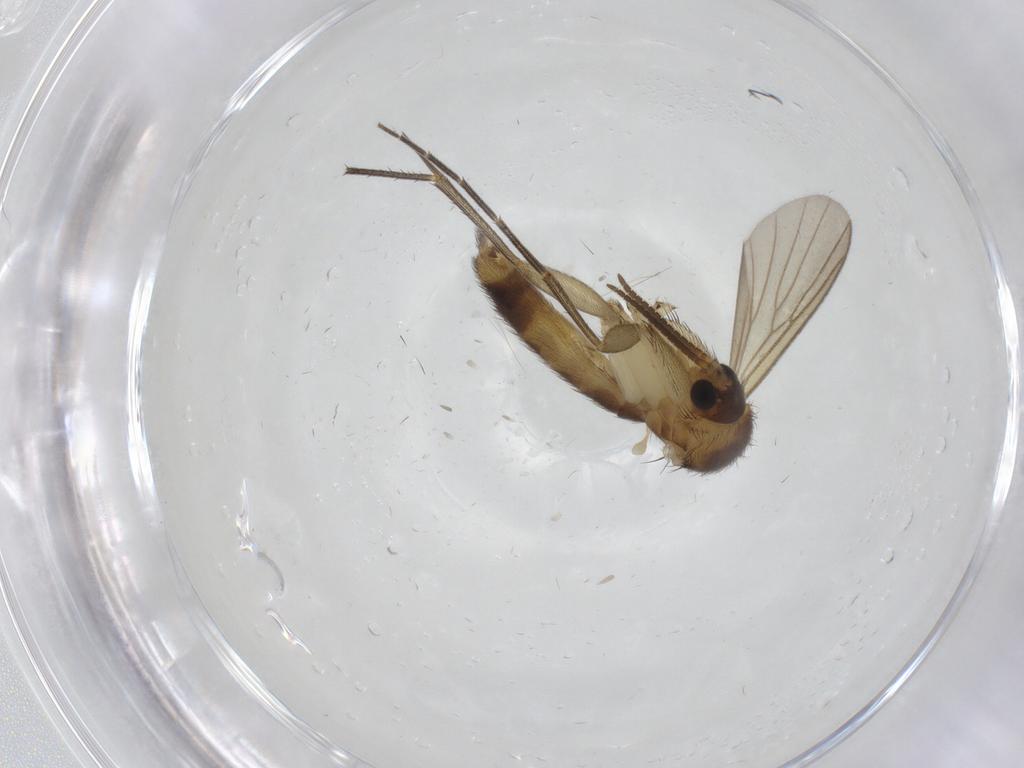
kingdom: Animalia
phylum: Arthropoda
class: Insecta
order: Diptera
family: Mycetophilidae
